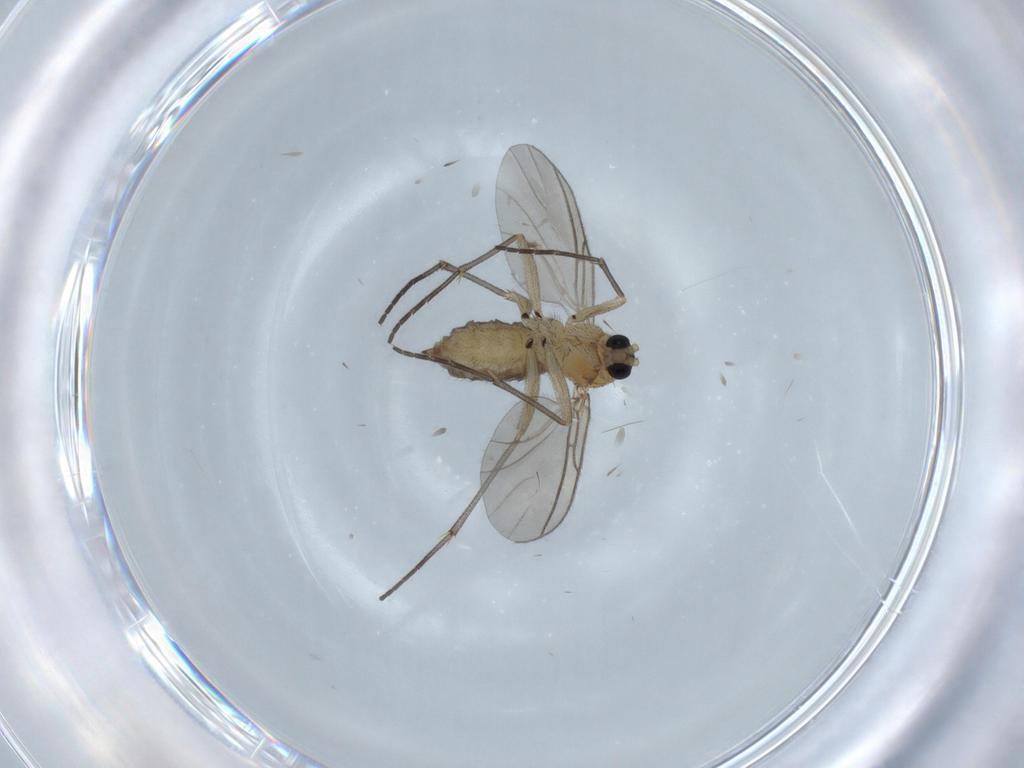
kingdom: Animalia
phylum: Arthropoda
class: Insecta
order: Diptera
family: Sciaridae
